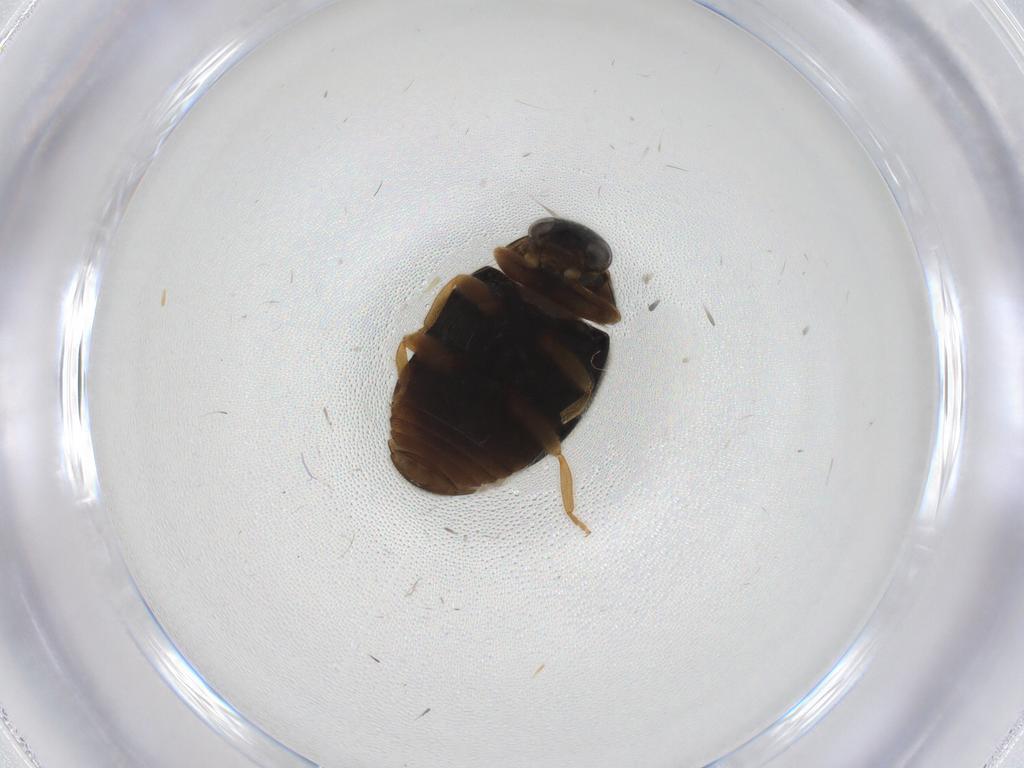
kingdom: Animalia
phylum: Arthropoda
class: Insecta
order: Coleoptera
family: Coccinellidae
